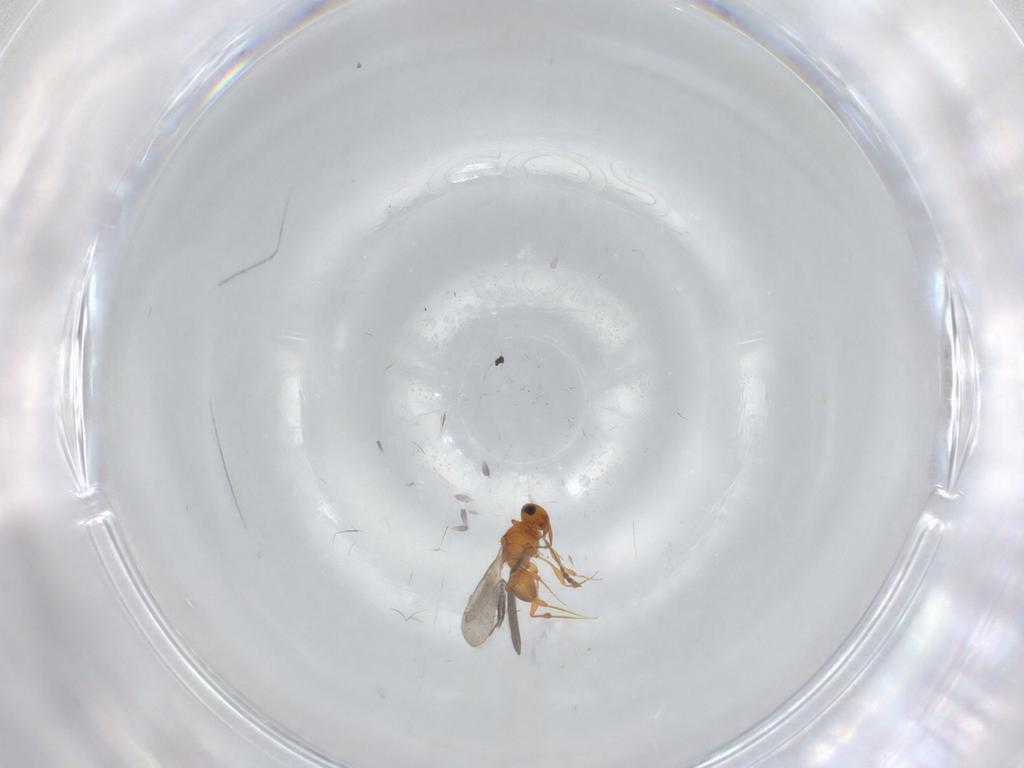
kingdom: Animalia
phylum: Arthropoda
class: Insecta
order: Hymenoptera
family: Platygastridae
